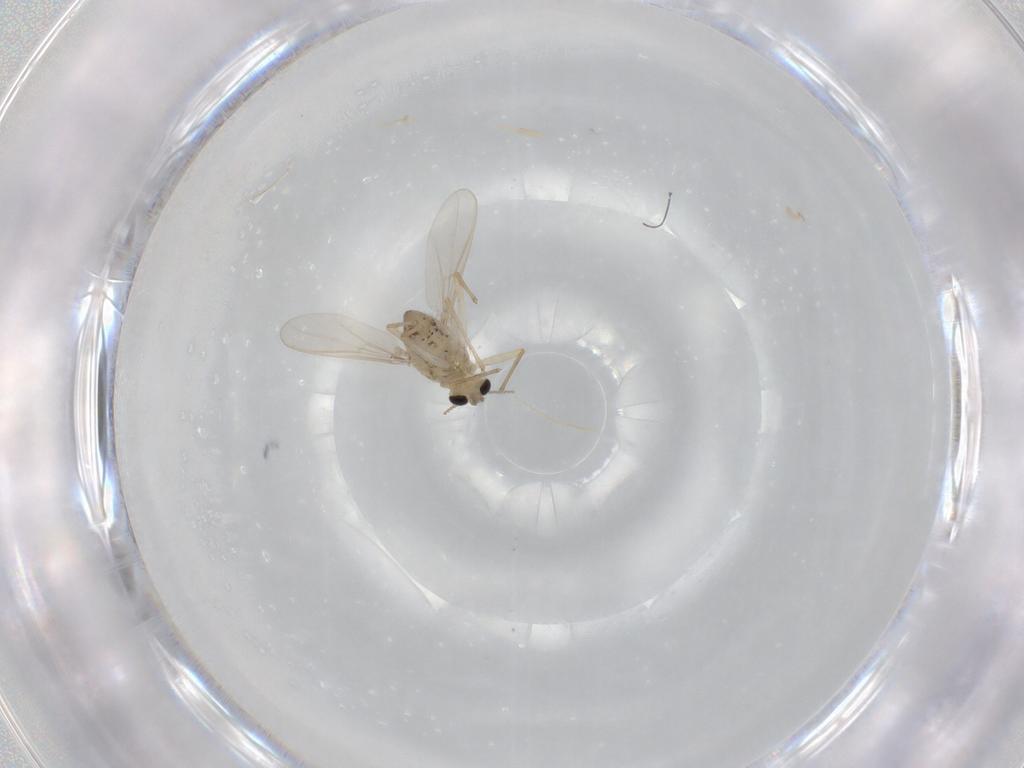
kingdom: Animalia
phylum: Arthropoda
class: Insecta
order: Diptera
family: Chironomidae
